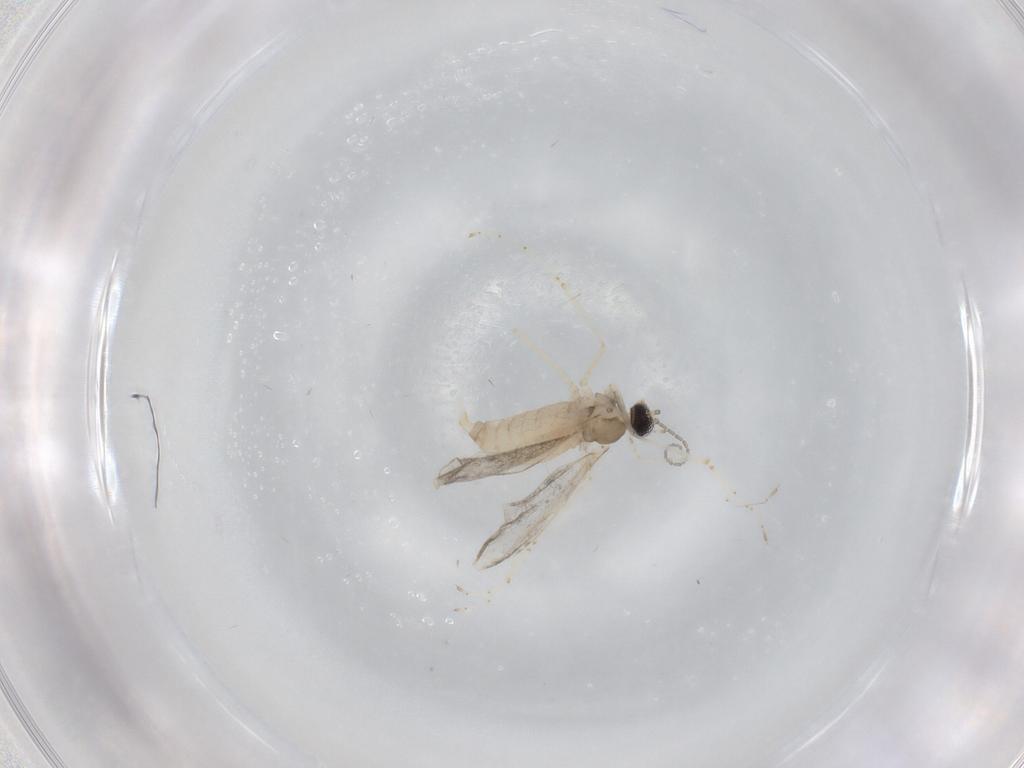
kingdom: Animalia
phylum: Arthropoda
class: Insecta
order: Diptera
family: Cecidomyiidae
